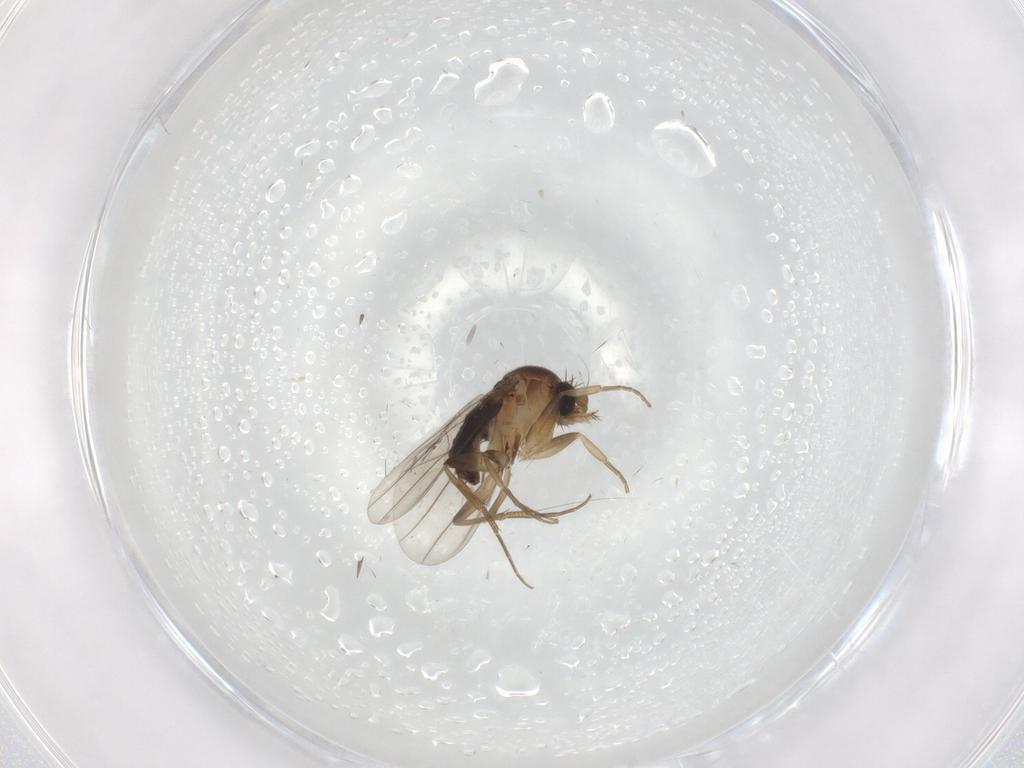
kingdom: Animalia
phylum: Arthropoda
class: Insecta
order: Diptera
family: Phoridae
